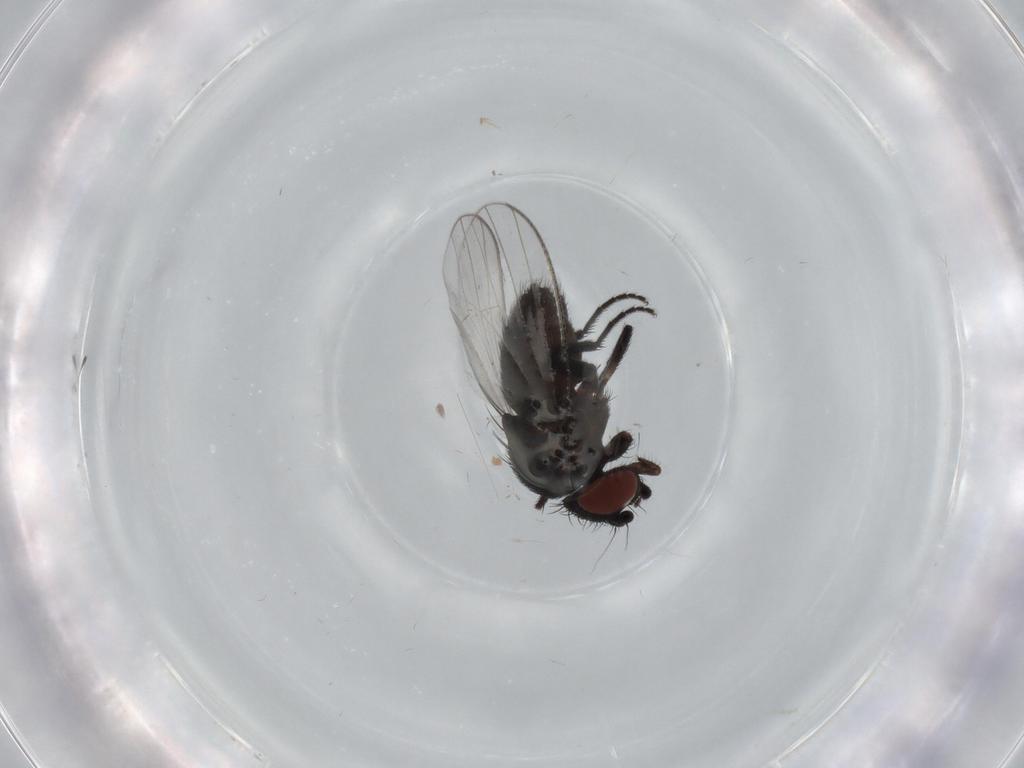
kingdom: Animalia
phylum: Arthropoda
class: Insecta
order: Diptera
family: Milichiidae
